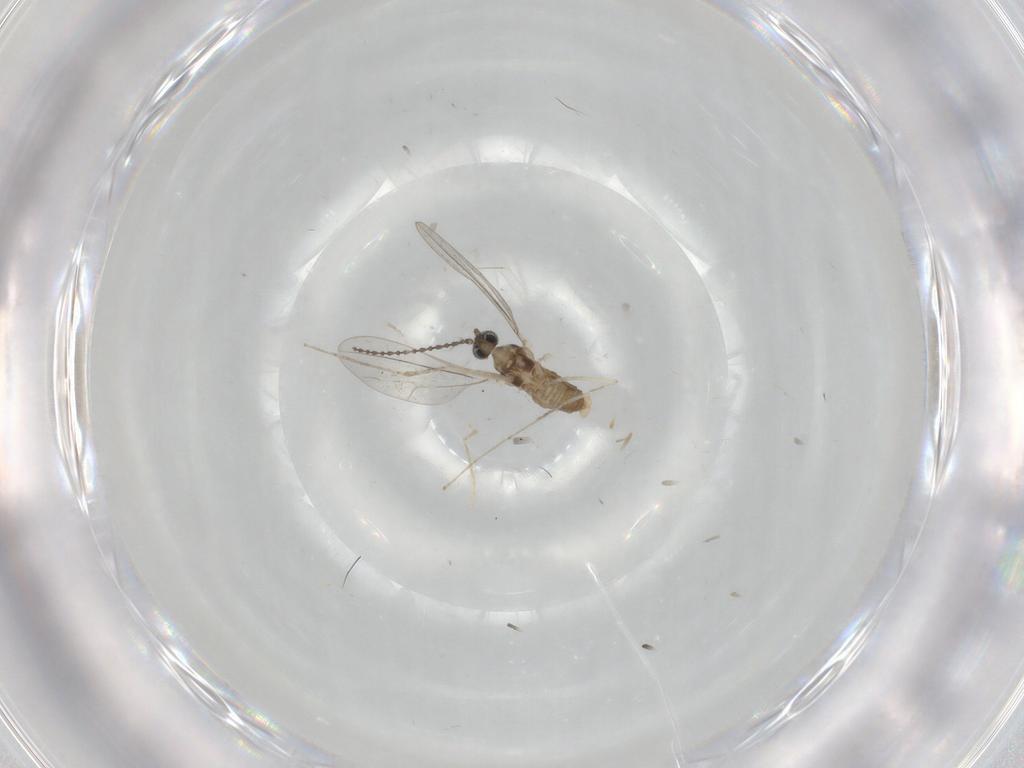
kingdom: Animalia
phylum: Arthropoda
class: Insecta
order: Diptera
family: Cecidomyiidae
